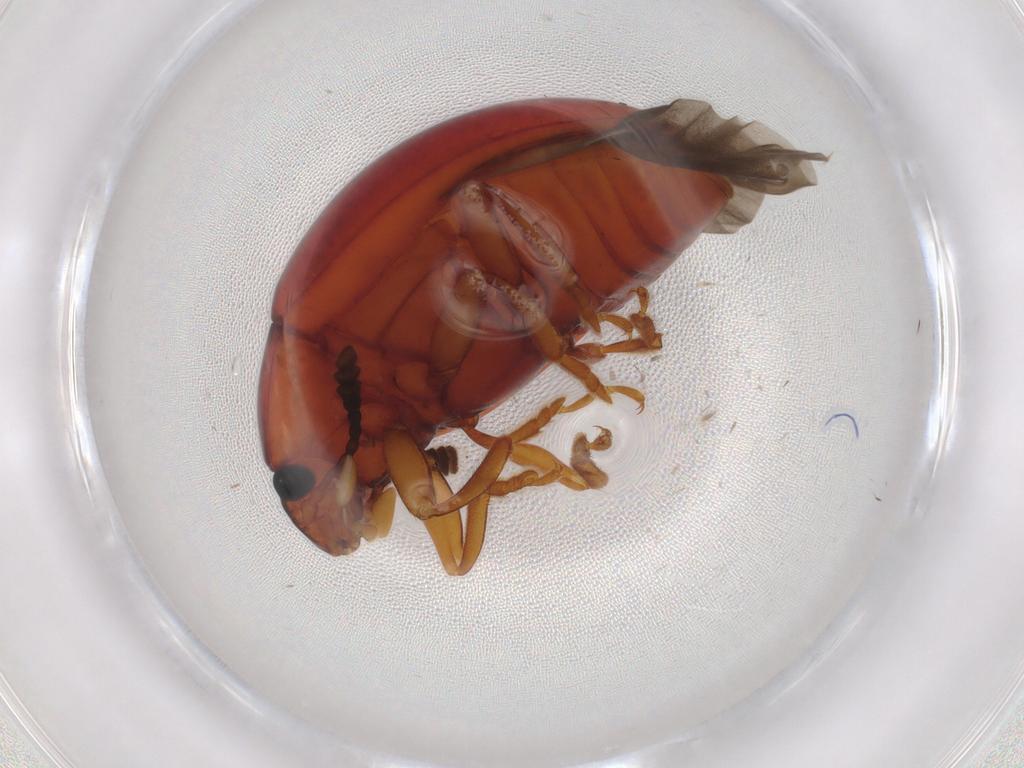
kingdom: Animalia
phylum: Arthropoda
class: Insecta
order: Coleoptera
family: Erotylidae
